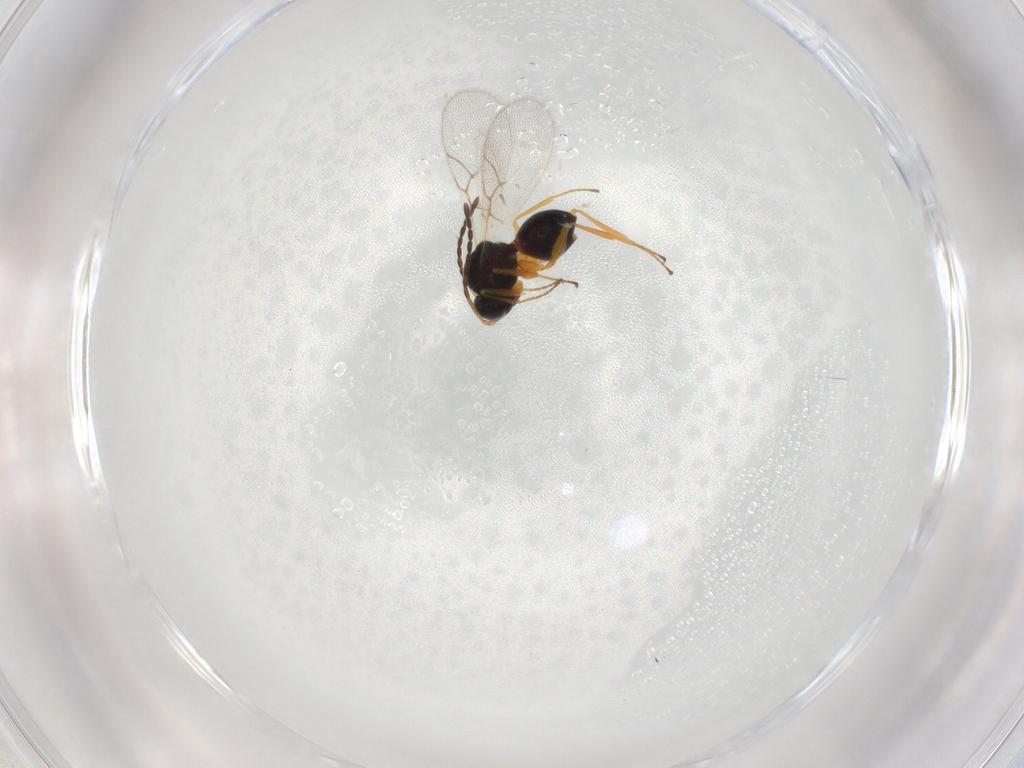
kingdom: Animalia
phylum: Arthropoda
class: Insecta
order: Hymenoptera
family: Figitidae
